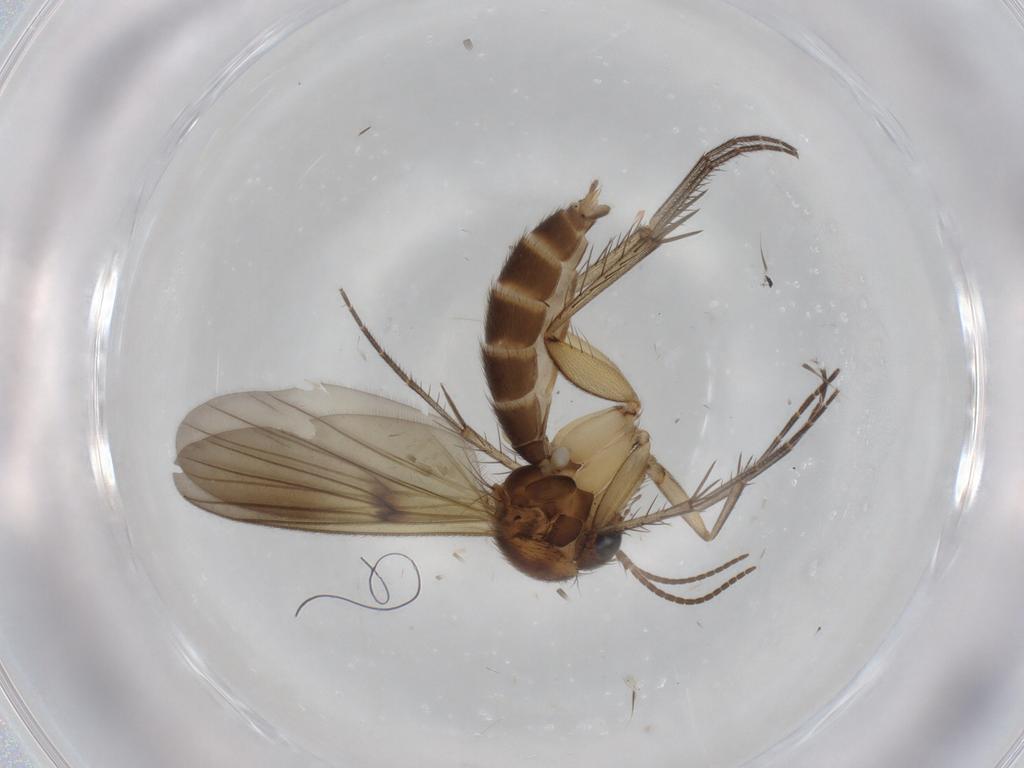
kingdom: Animalia
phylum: Arthropoda
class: Insecta
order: Diptera
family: Mycetophilidae
